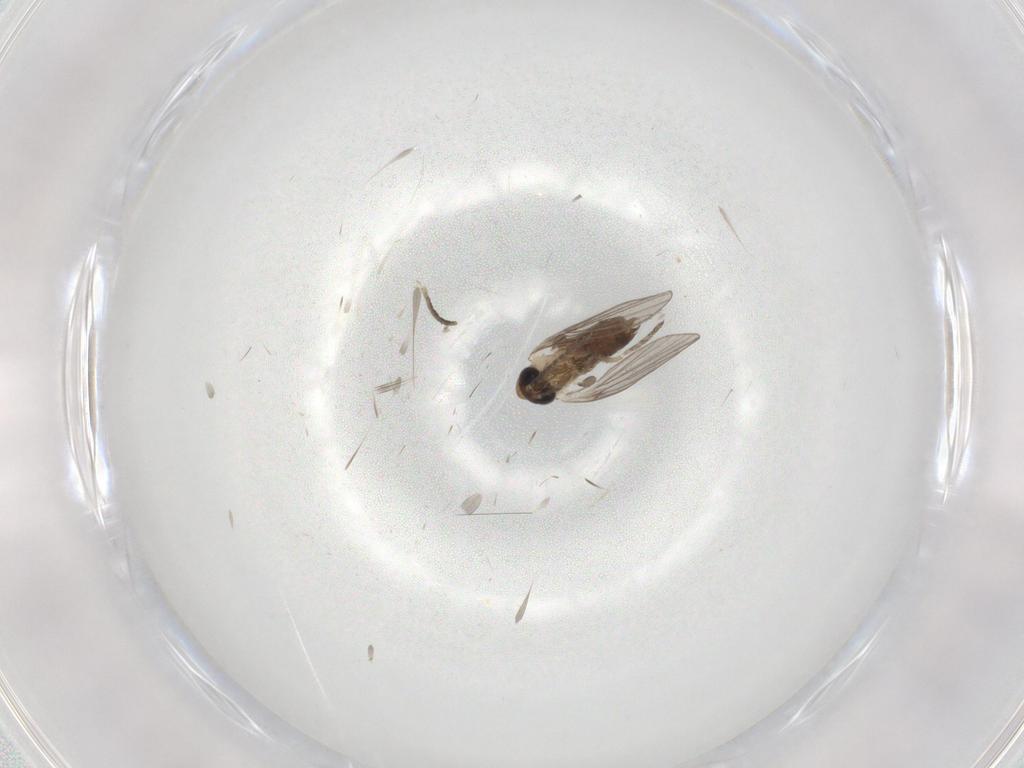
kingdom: Animalia
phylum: Arthropoda
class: Insecta
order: Diptera
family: Psychodidae
